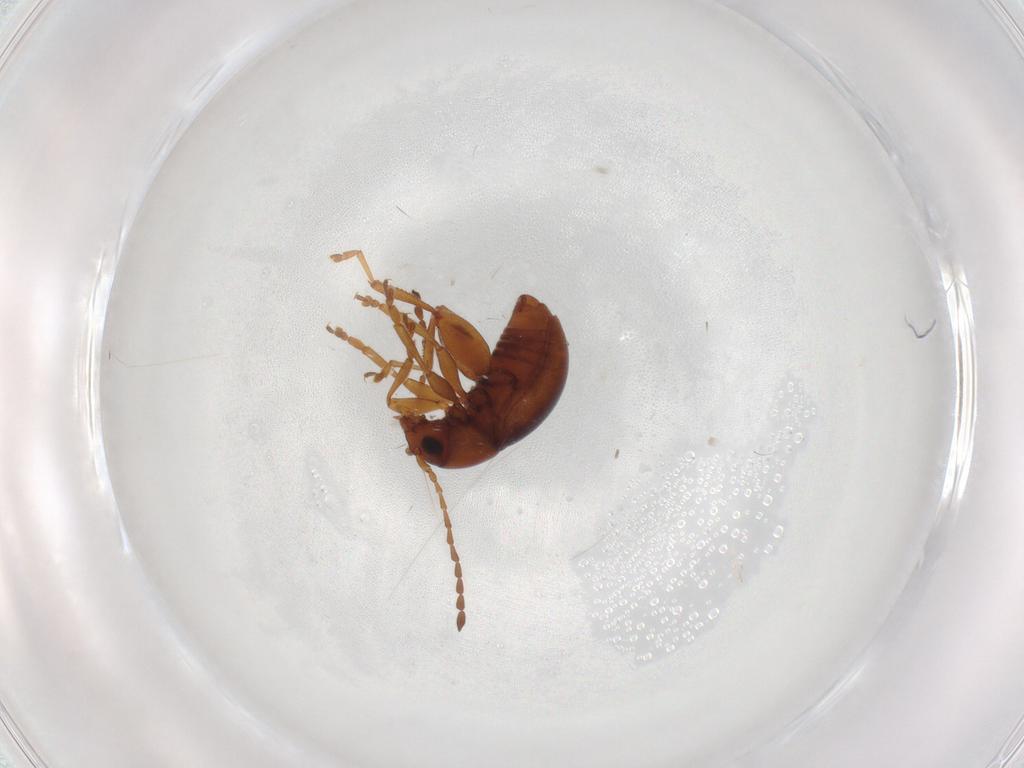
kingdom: Animalia
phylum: Arthropoda
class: Insecta
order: Coleoptera
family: Chrysomelidae
